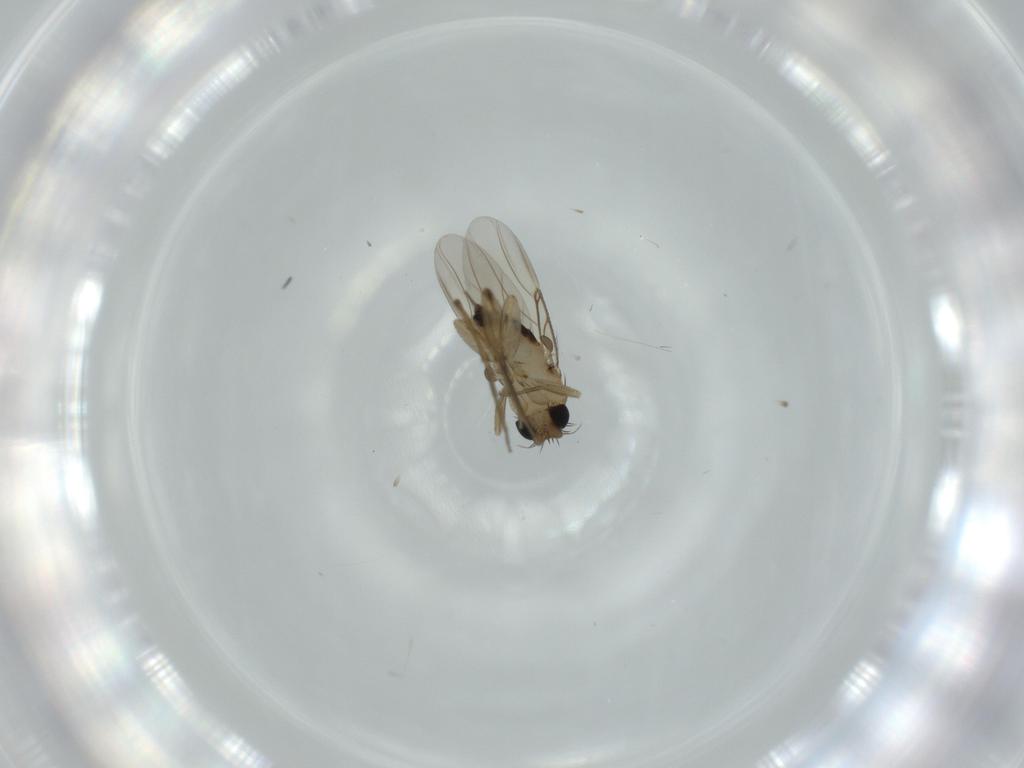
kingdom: Animalia
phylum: Arthropoda
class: Insecta
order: Diptera
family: Phoridae
